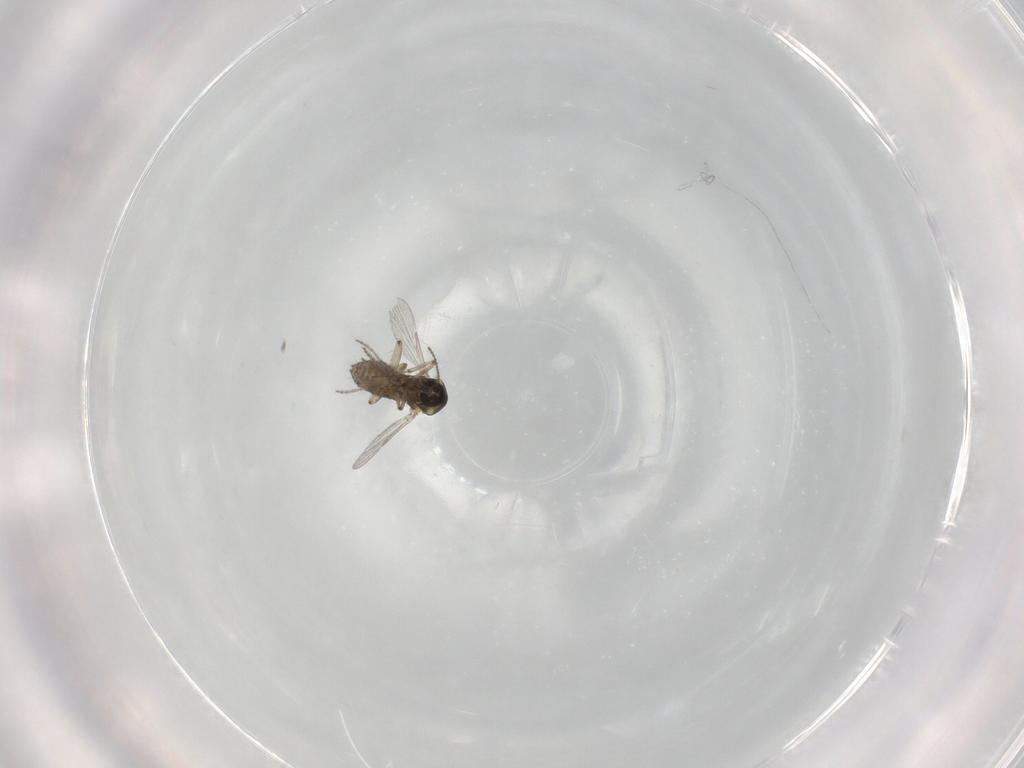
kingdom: Animalia
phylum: Arthropoda
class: Insecta
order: Diptera
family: Ceratopogonidae
